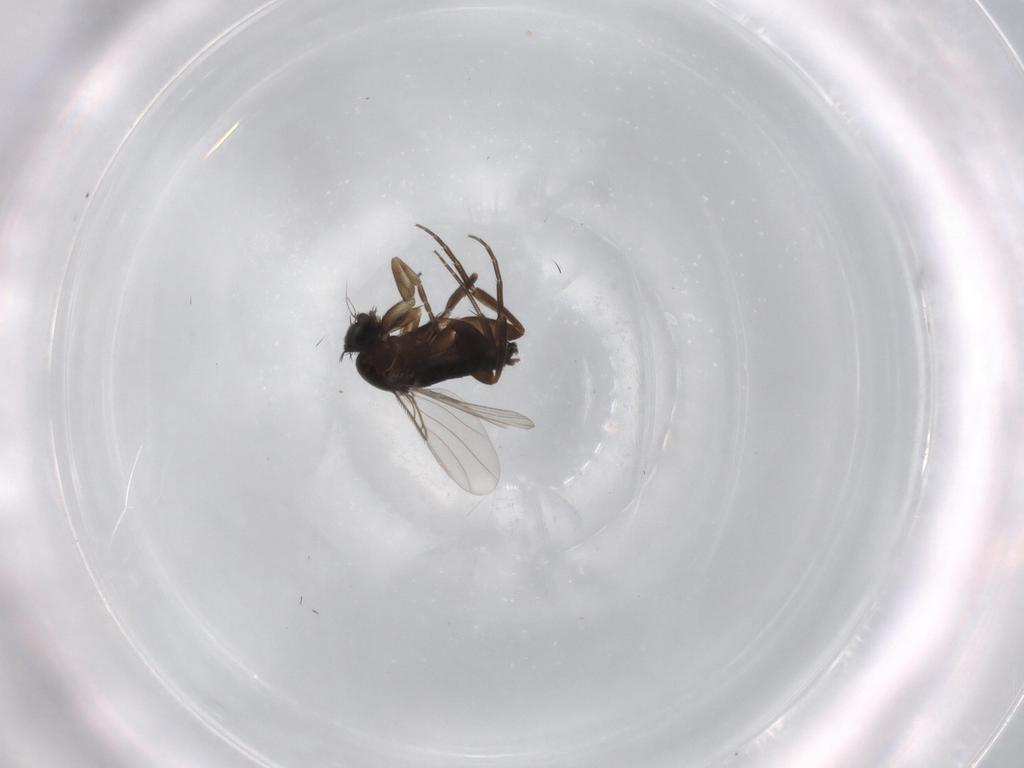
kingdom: Animalia
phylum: Arthropoda
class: Insecta
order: Diptera
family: Phoridae
